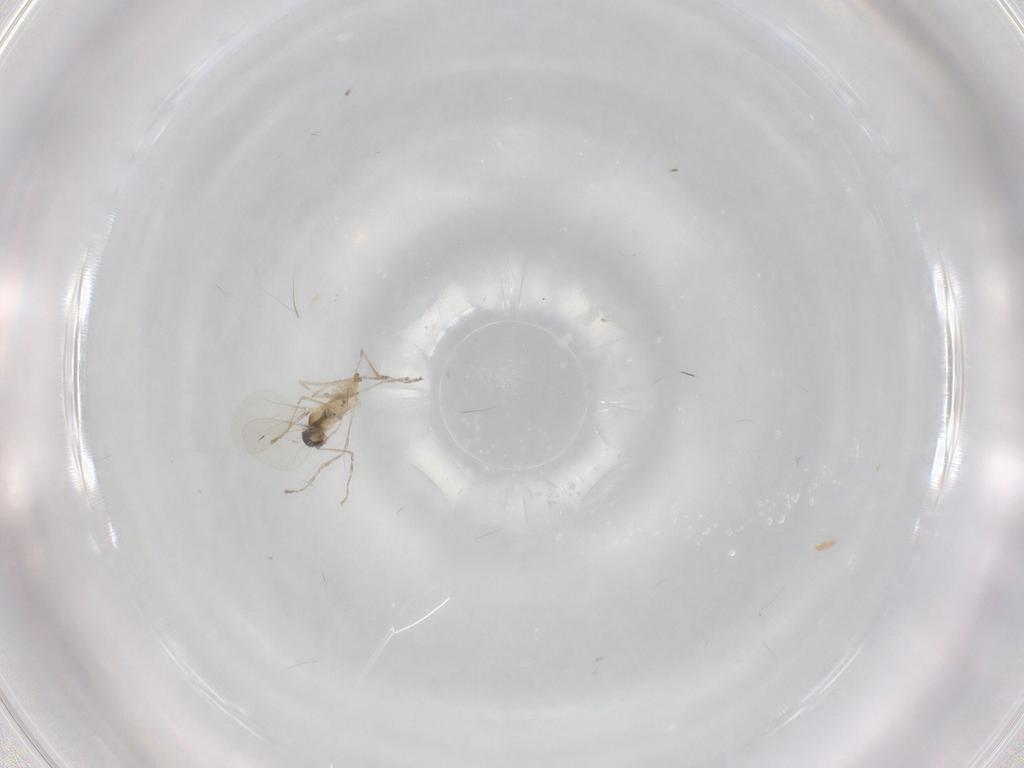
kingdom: Animalia
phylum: Arthropoda
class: Insecta
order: Diptera
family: Cecidomyiidae
